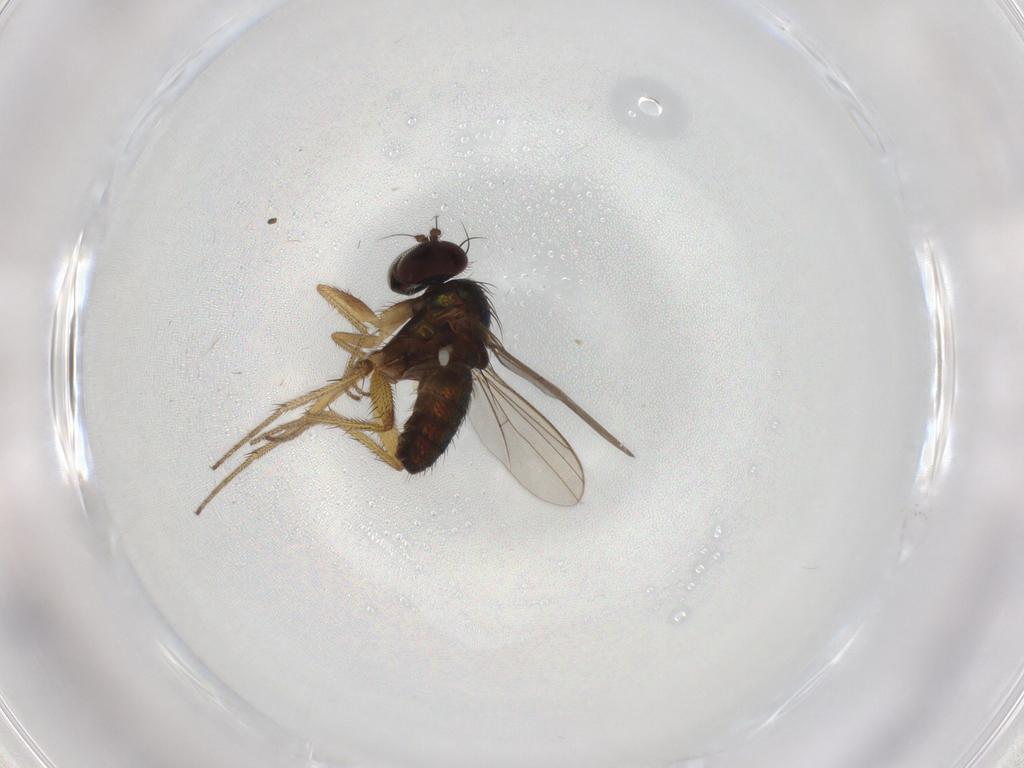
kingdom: Animalia
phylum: Arthropoda
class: Insecta
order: Diptera
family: Dolichopodidae
